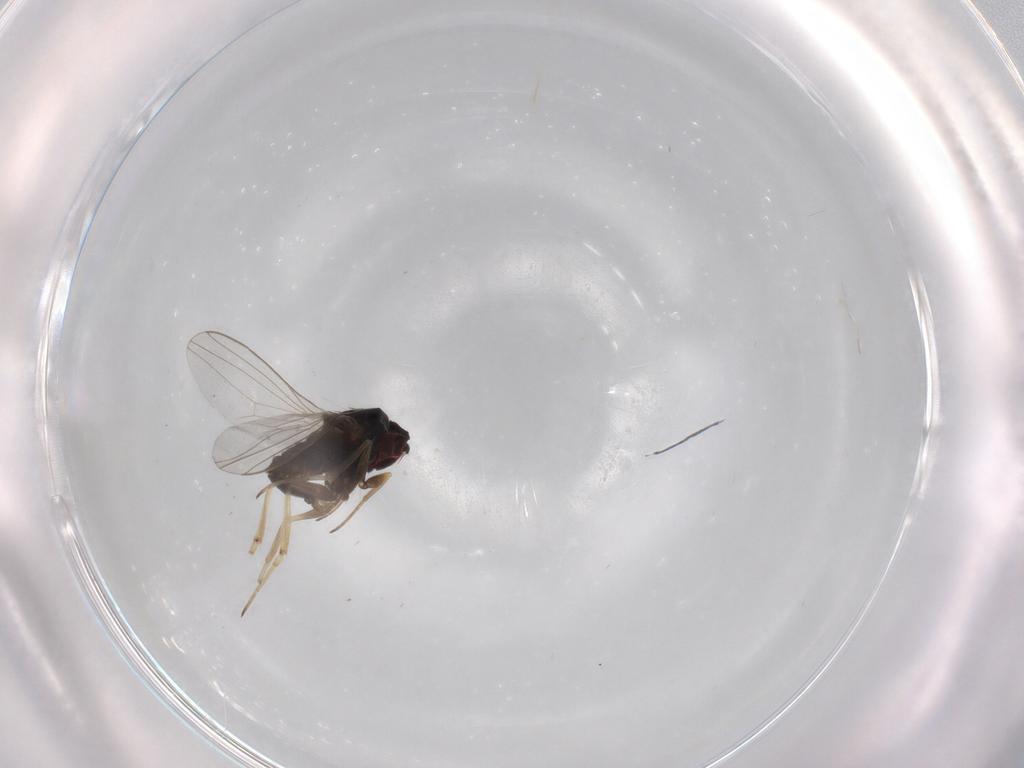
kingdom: Animalia
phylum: Arthropoda
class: Insecta
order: Diptera
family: Dolichopodidae
